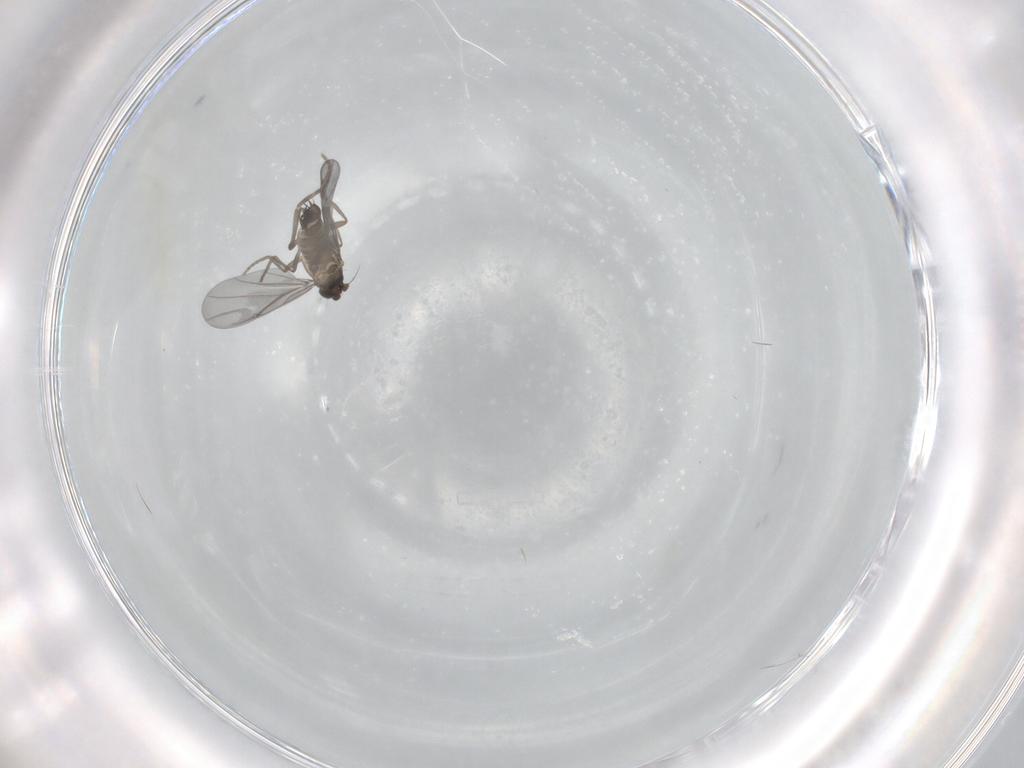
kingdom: Animalia
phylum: Arthropoda
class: Insecta
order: Diptera
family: Phoridae
